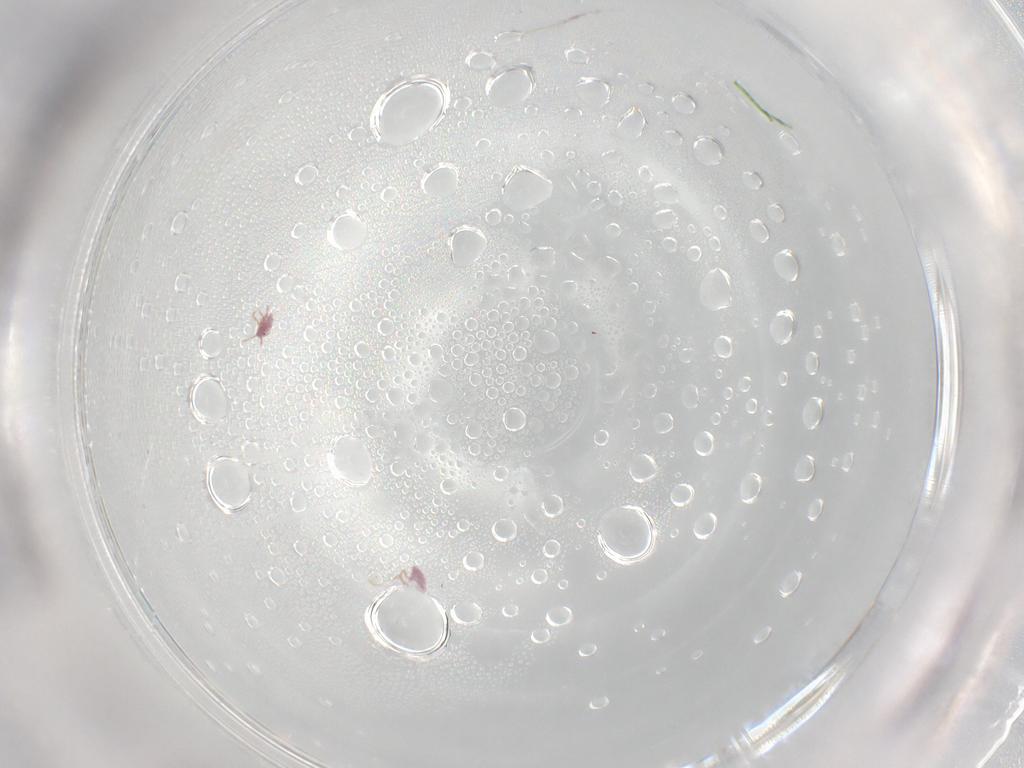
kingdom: Animalia
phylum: Arthropoda
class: Insecta
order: Hemiptera
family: Aphididae
